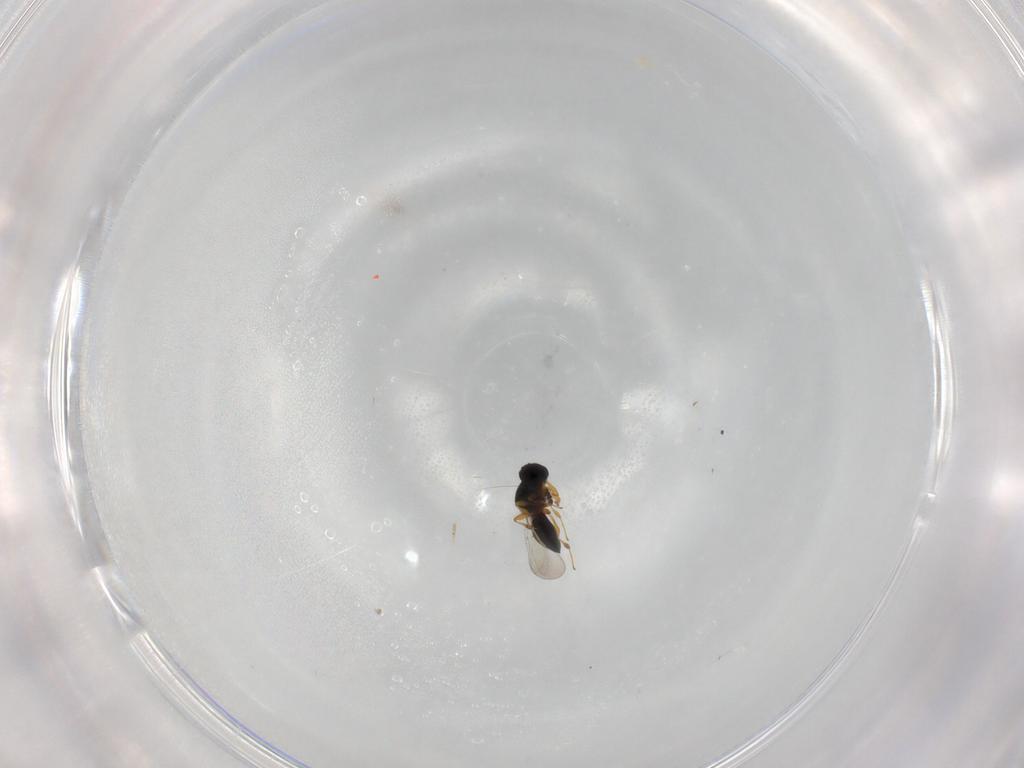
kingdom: Animalia
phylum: Arthropoda
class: Insecta
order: Hymenoptera
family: Platygastridae
